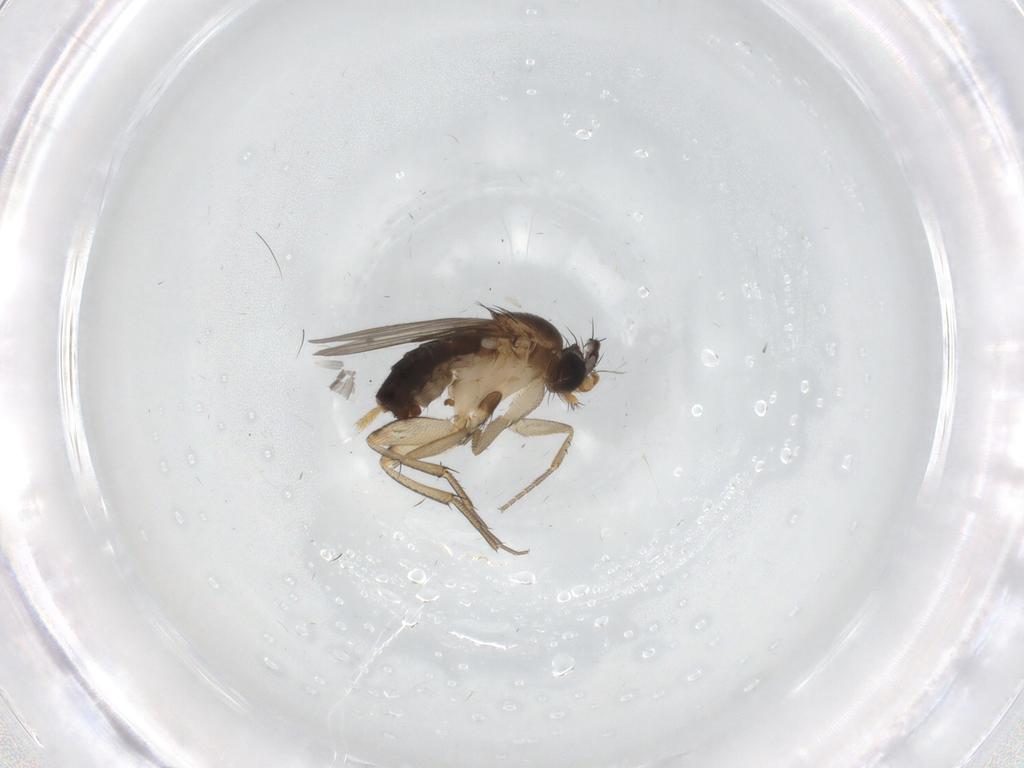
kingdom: Animalia
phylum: Arthropoda
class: Insecta
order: Diptera
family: Phoridae
